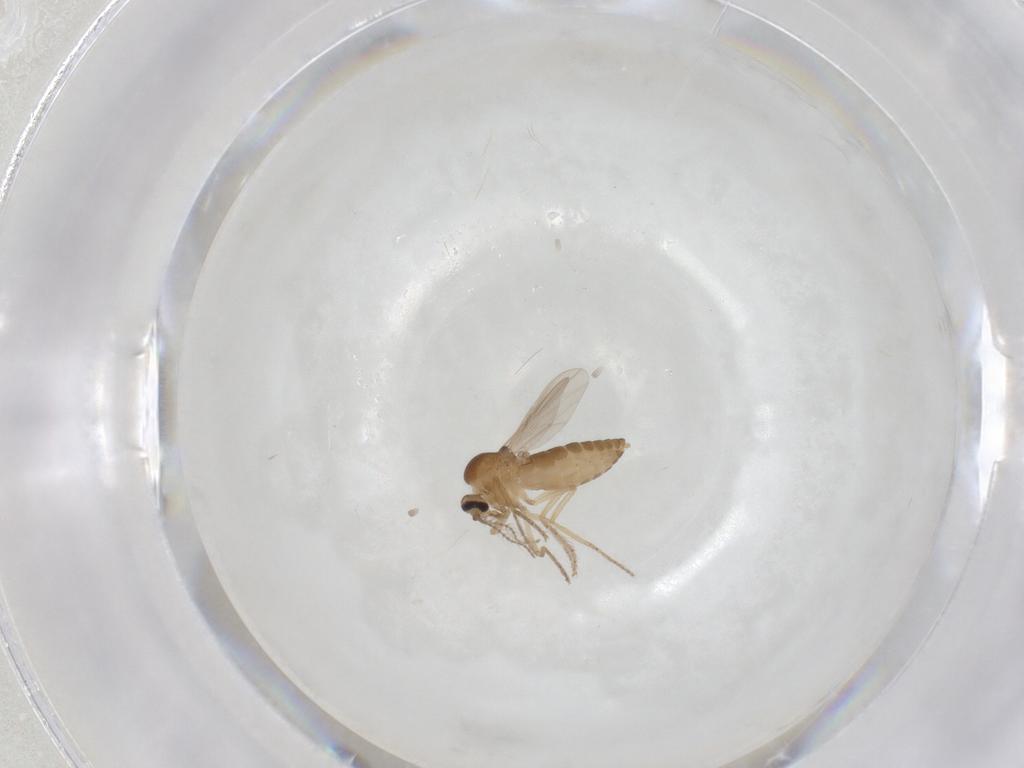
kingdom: Animalia
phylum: Arthropoda
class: Insecta
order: Diptera
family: Ceratopogonidae
